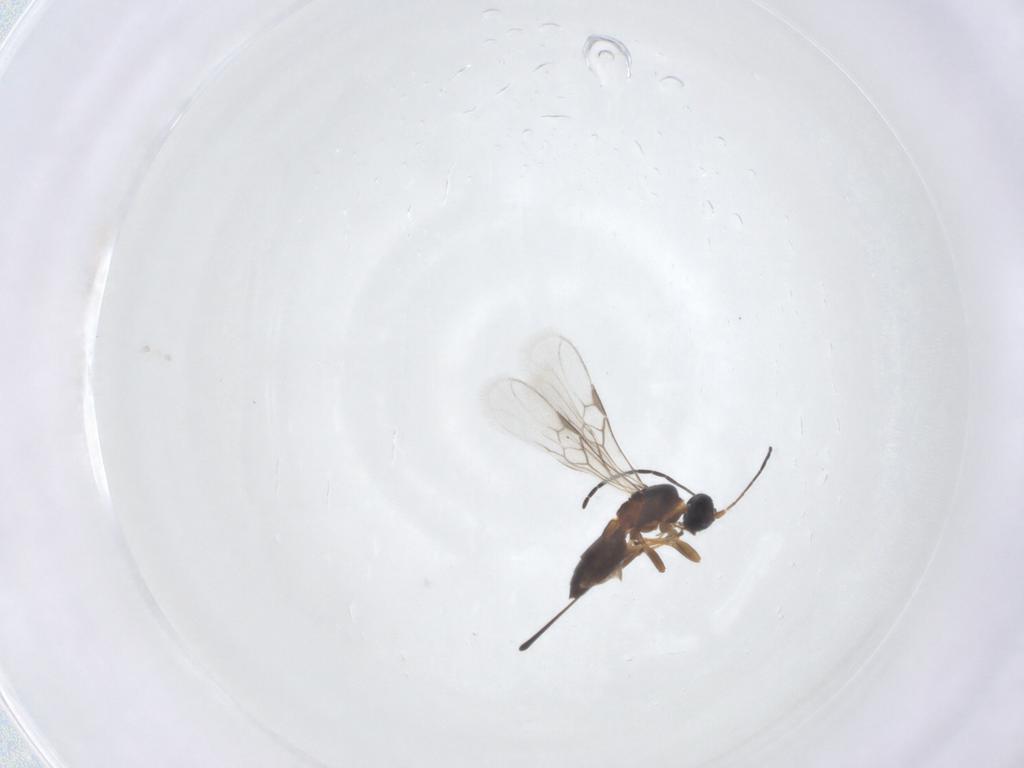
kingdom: Animalia
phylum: Arthropoda
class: Insecta
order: Hymenoptera
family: Braconidae
